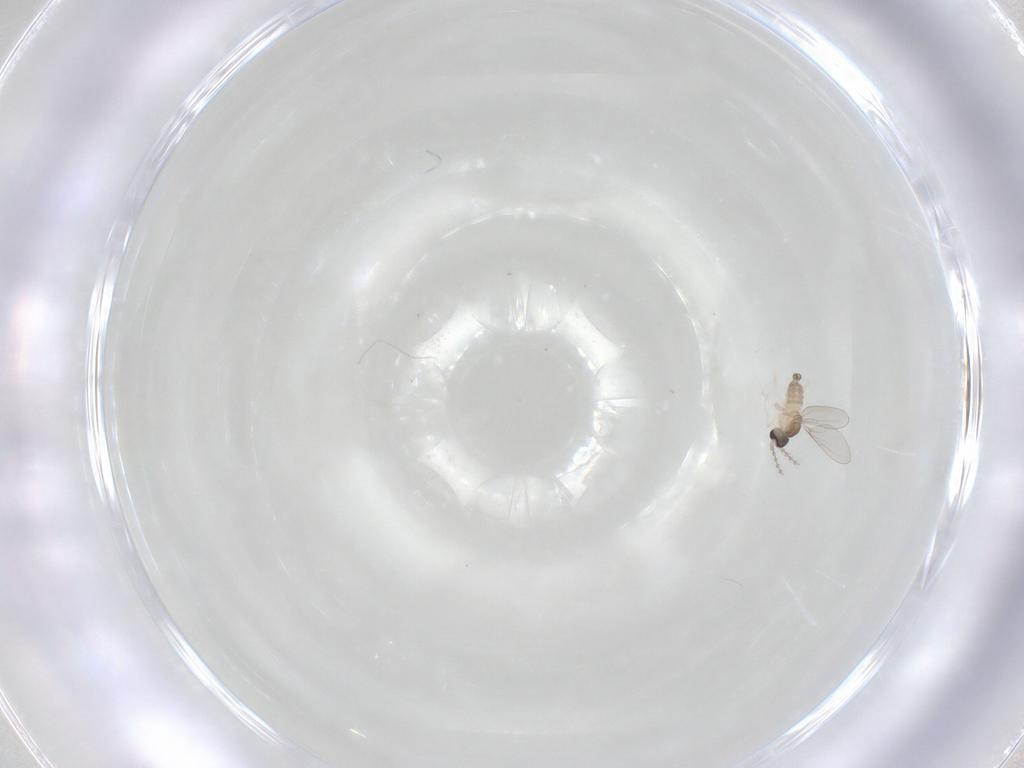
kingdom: Animalia
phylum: Arthropoda
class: Insecta
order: Diptera
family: Cecidomyiidae
